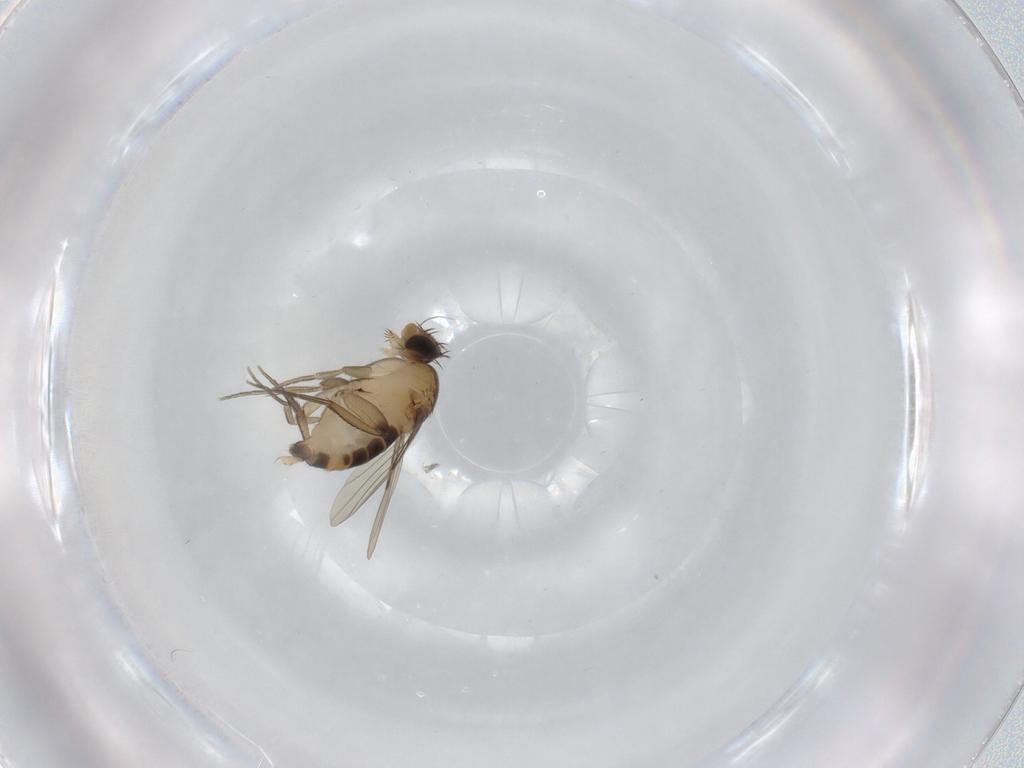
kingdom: Animalia
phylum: Arthropoda
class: Insecta
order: Diptera
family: Phoridae
